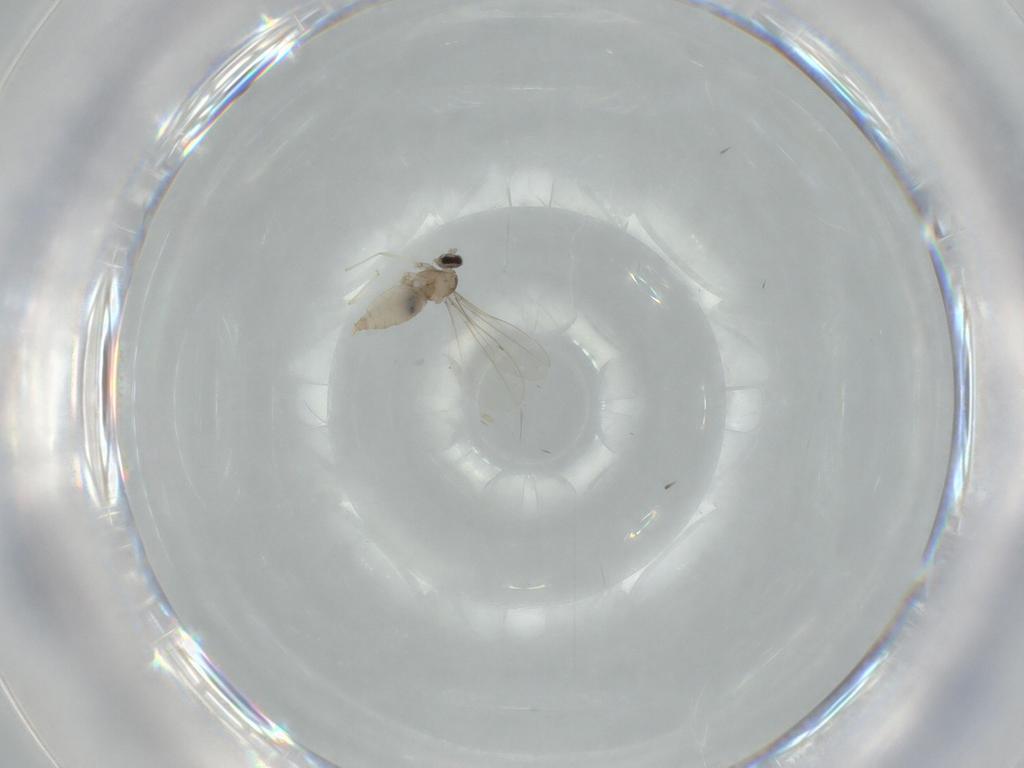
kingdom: Animalia
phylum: Arthropoda
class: Insecta
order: Diptera
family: Cecidomyiidae
